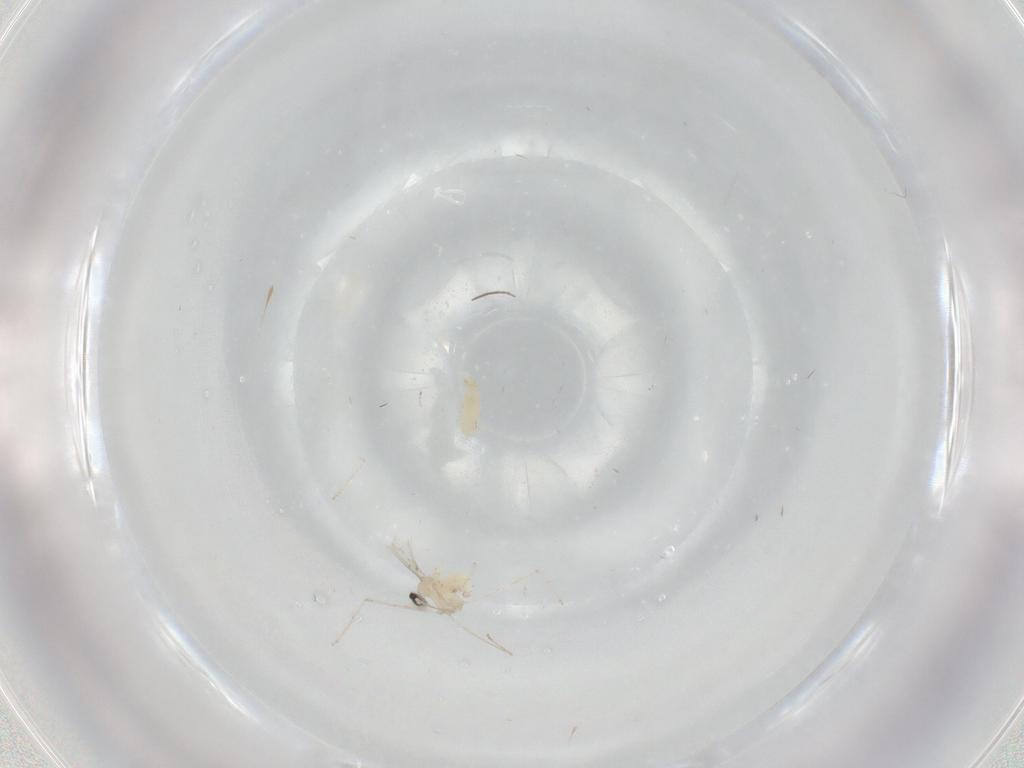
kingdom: Animalia
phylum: Arthropoda
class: Insecta
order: Diptera
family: Cecidomyiidae
